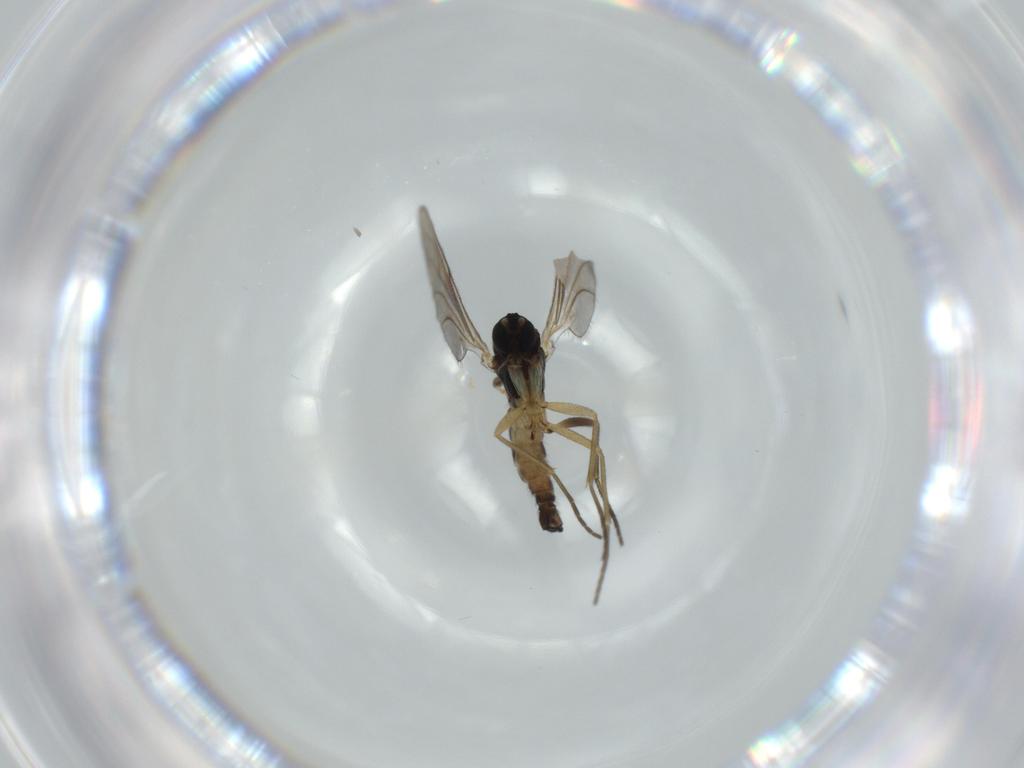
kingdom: Animalia
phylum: Arthropoda
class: Insecta
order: Diptera
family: Sciaridae
